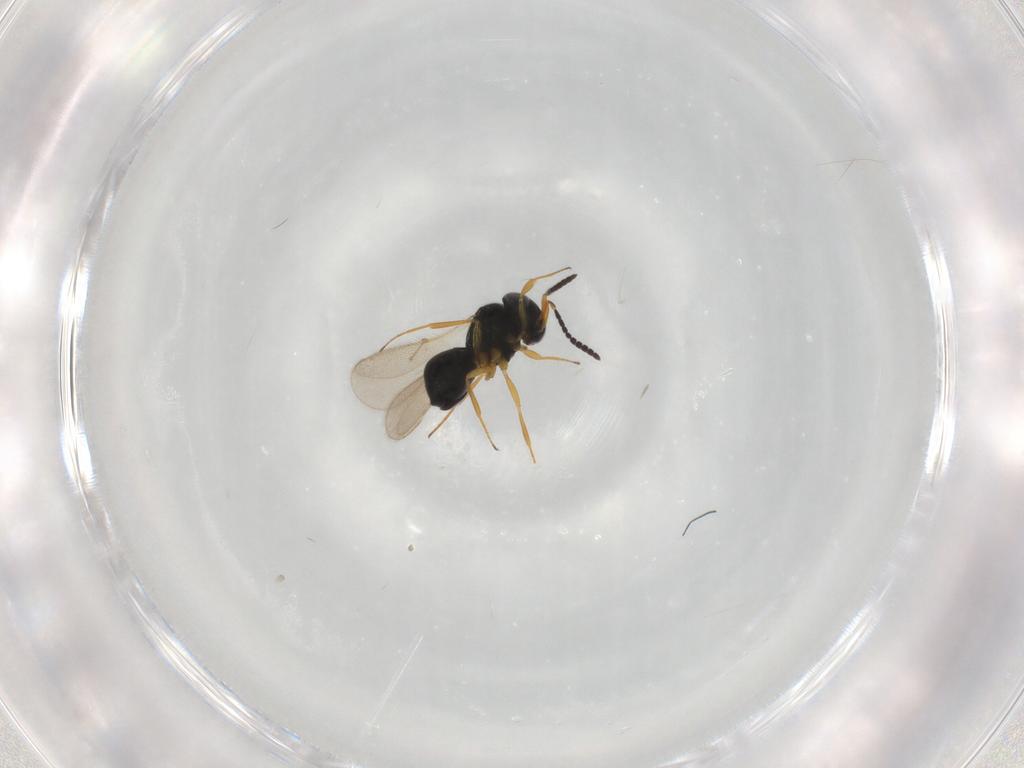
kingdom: Animalia
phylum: Arthropoda
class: Insecta
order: Hymenoptera
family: Scelionidae
